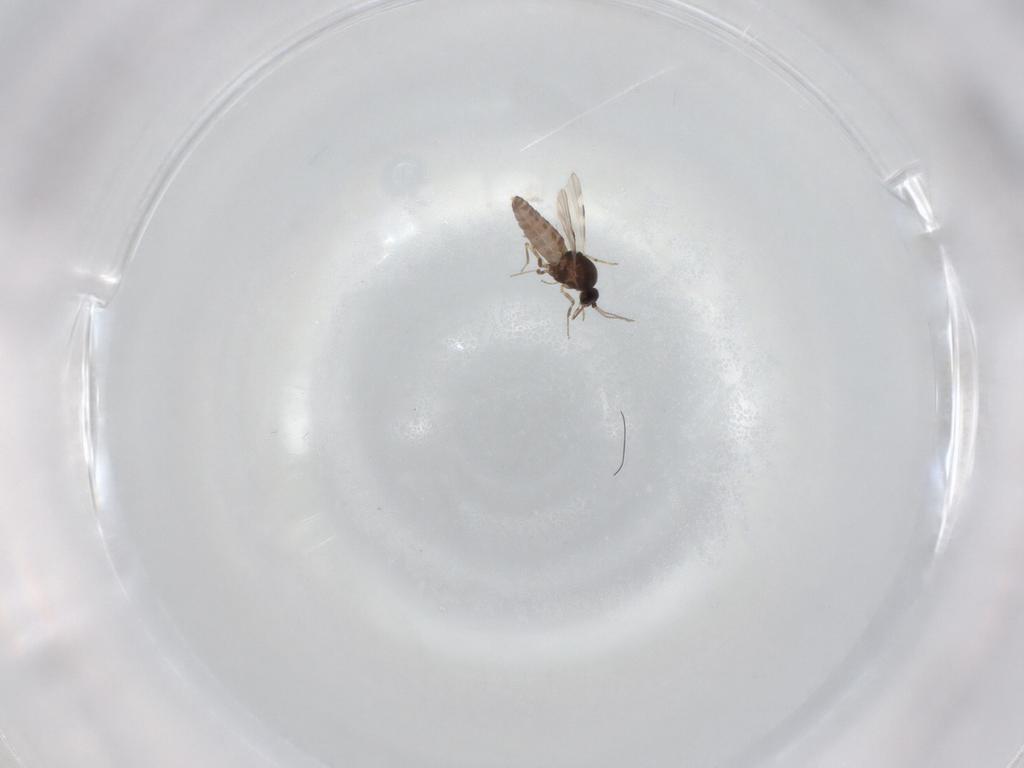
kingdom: Animalia
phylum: Arthropoda
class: Insecta
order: Diptera
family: Phoridae
